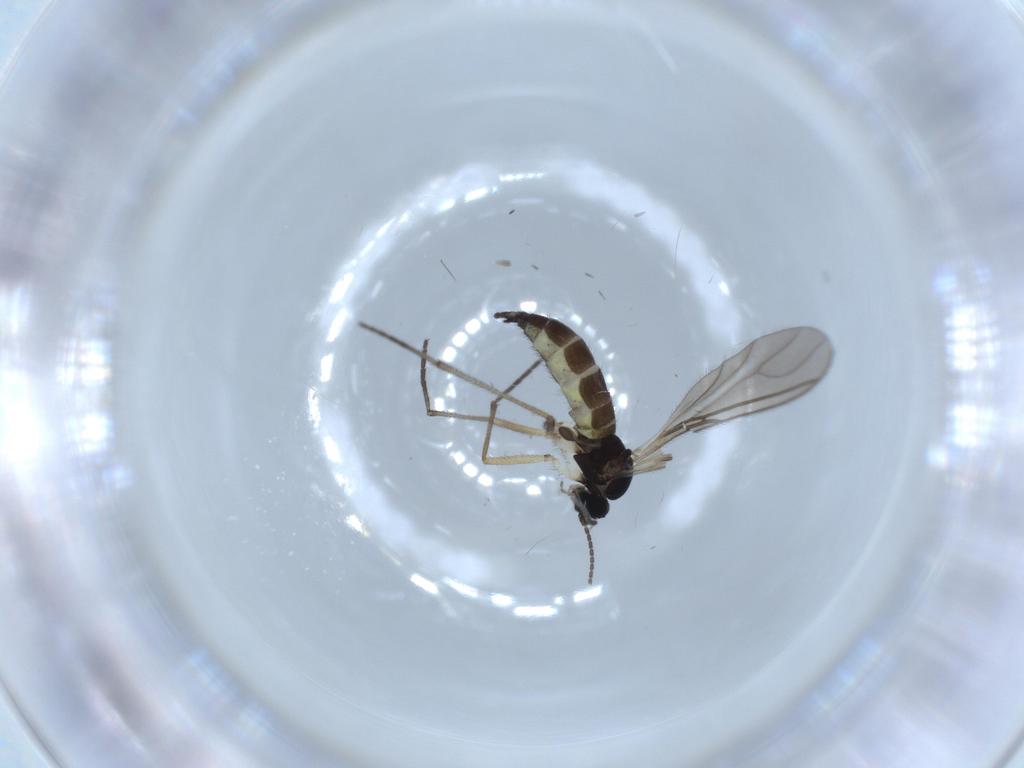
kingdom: Animalia
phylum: Arthropoda
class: Insecta
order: Diptera
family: Sciaridae
